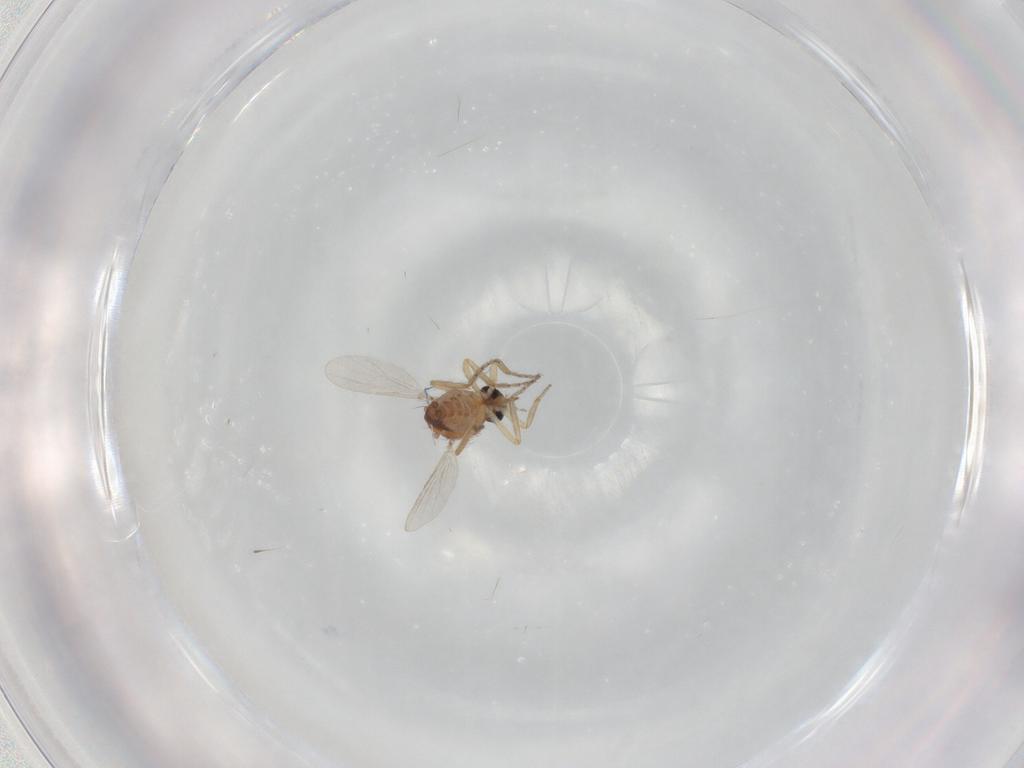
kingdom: Animalia
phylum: Arthropoda
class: Insecta
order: Diptera
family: Ceratopogonidae
